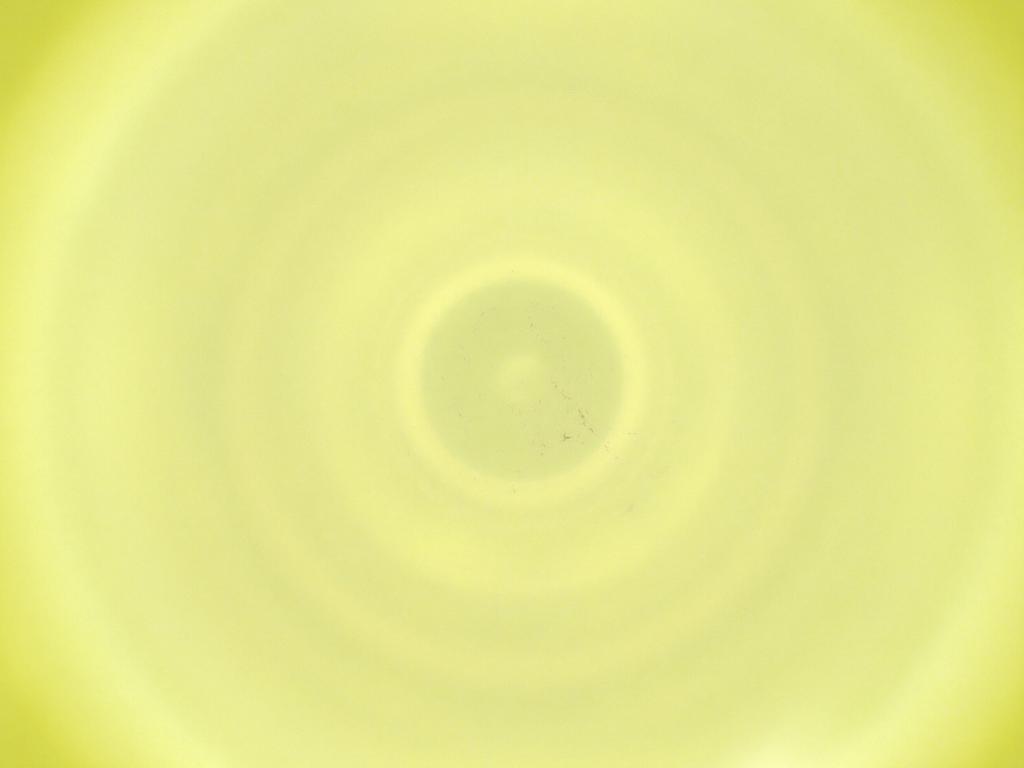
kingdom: Animalia
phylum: Arthropoda
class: Insecta
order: Diptera
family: Cecidomyiidae
